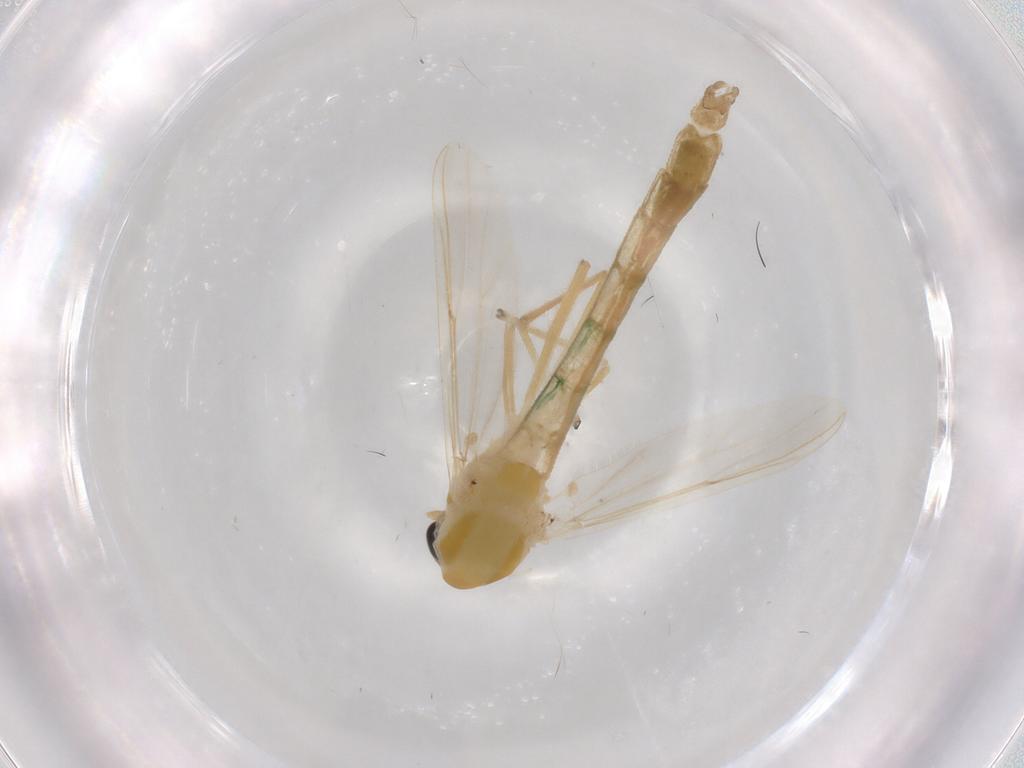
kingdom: Animalia
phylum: Arthropoda
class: Insecta
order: Diptera
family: Chironomidae
